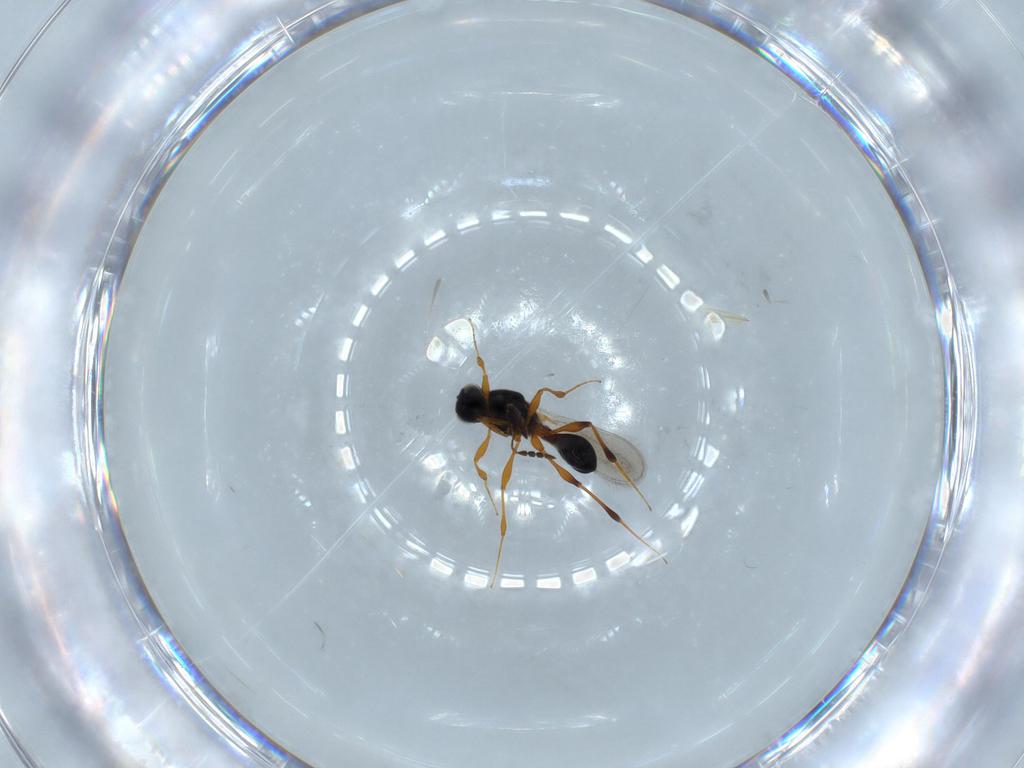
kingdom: Animalia
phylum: Arthropoda
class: Insecta
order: Hymenoptera
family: Platygastridae
